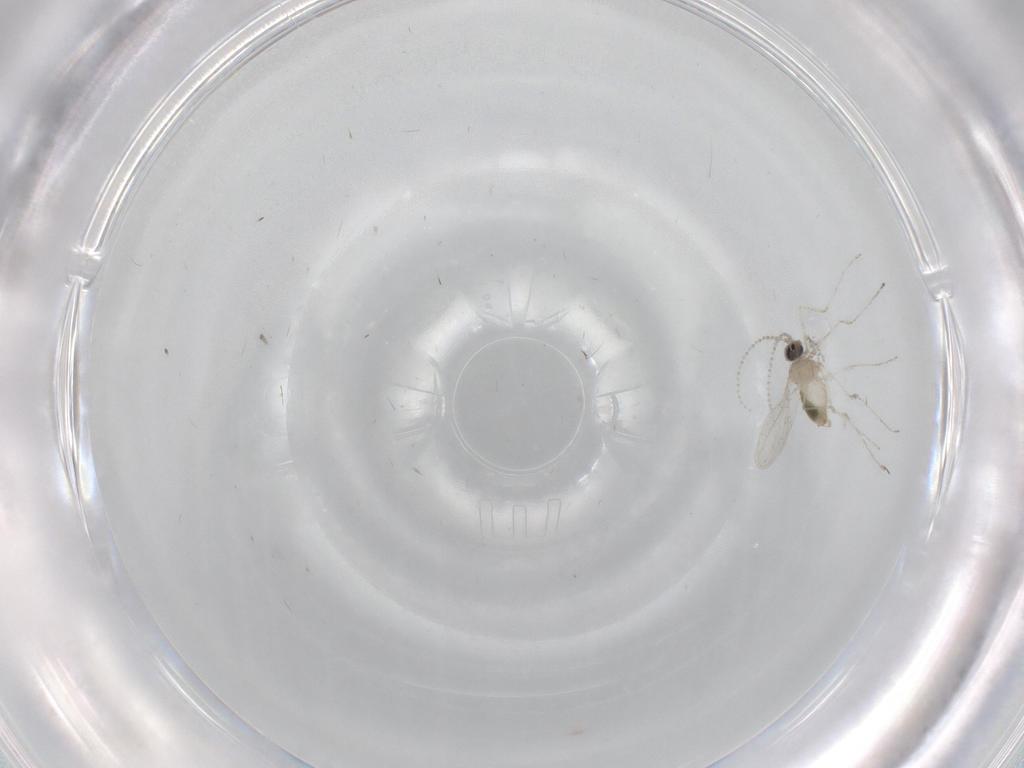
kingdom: Animalia
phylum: Arthropoda
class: Insecta
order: Diptera
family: Cecidomyiidae
